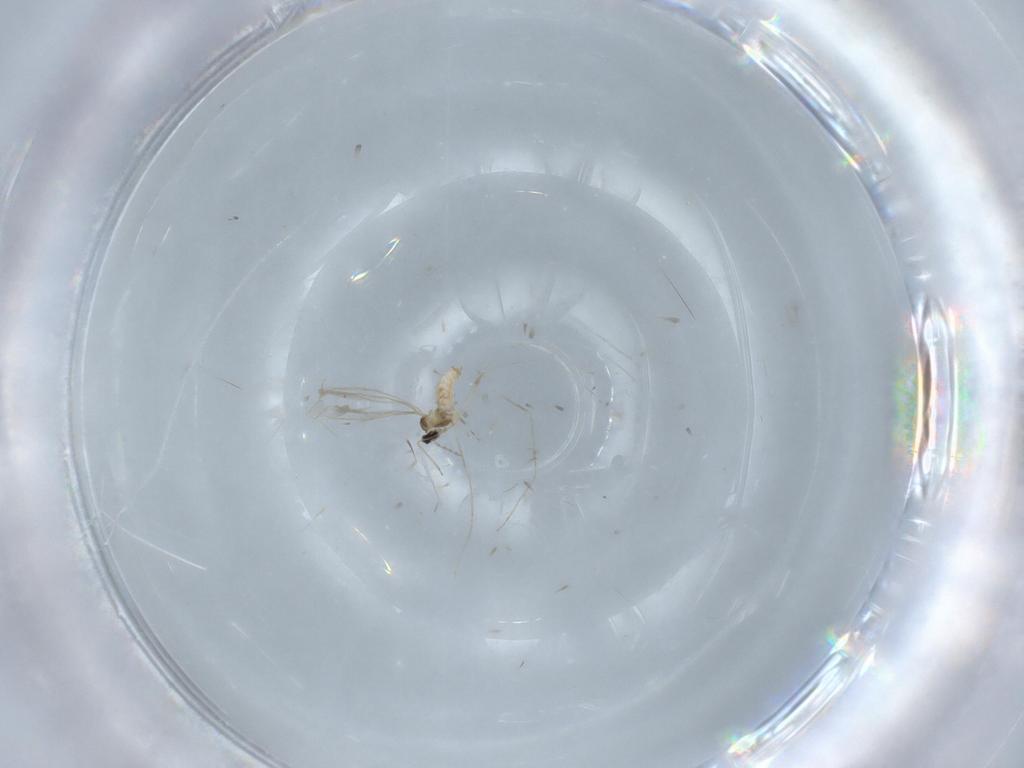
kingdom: Animalia
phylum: Arthropoda
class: Insecta
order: Diptera
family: Cecidomyiidae
